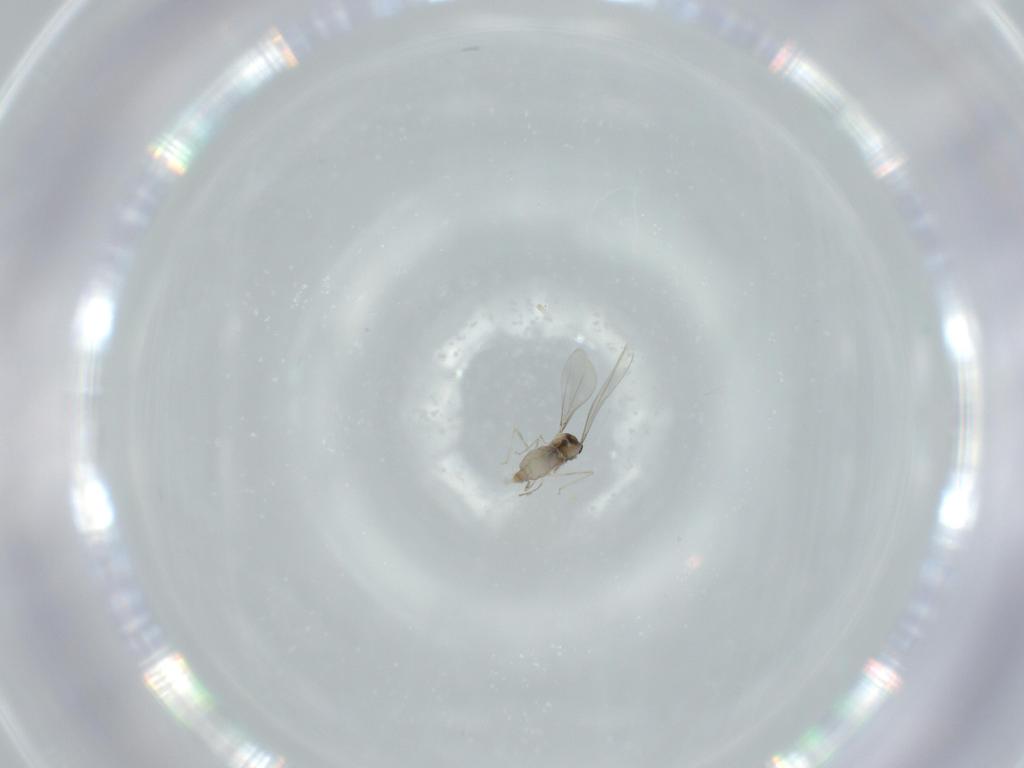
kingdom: Animalia
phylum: Arthropoda
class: Insecta
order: Diptera
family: Cecidomyiidae
